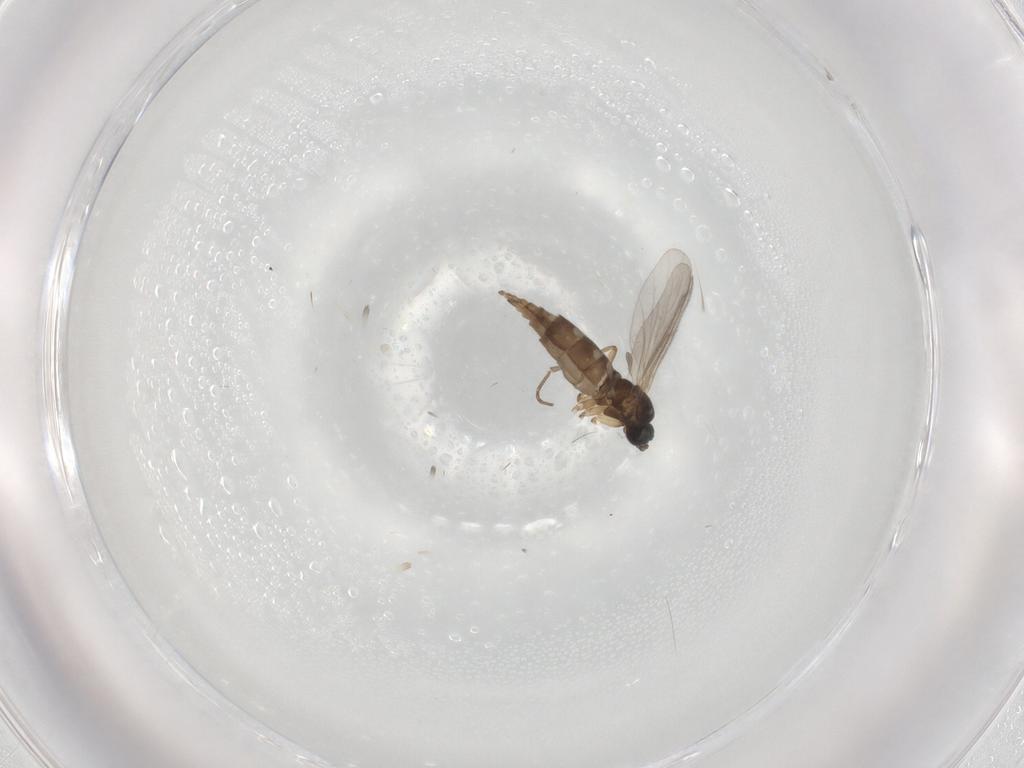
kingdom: Animalia
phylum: Arthropoda
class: Insecta
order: Diptera
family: Sciaridae
